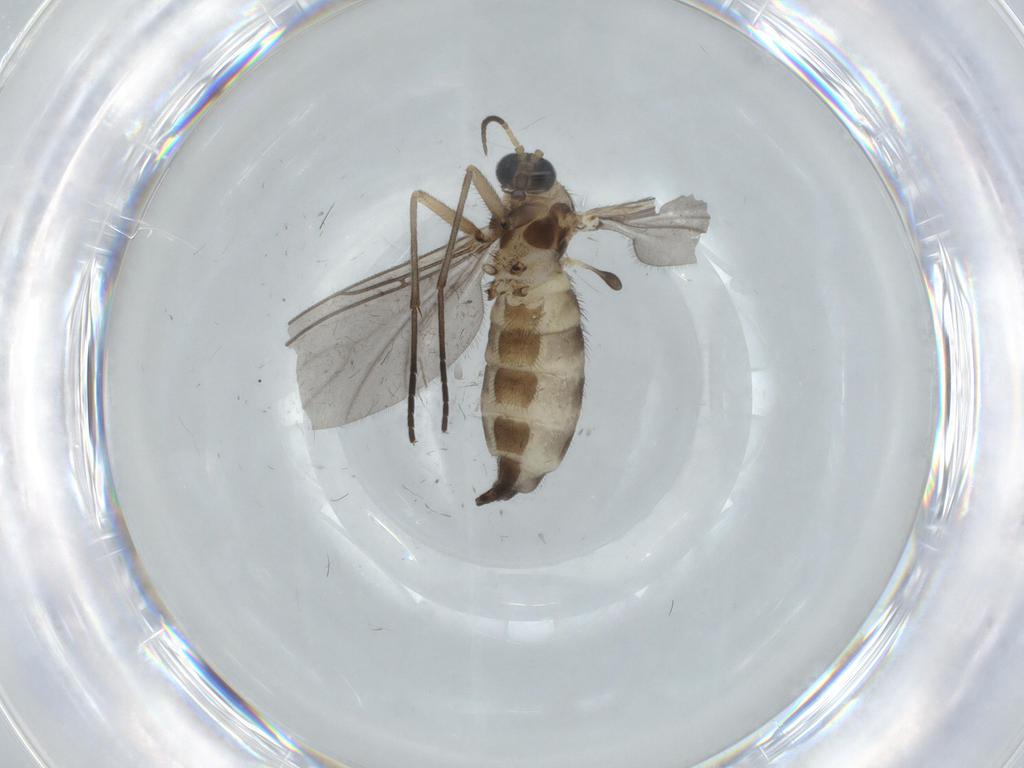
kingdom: Animalia
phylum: Arthropoda
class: Insecta
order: Diptera
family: Sciaridae
